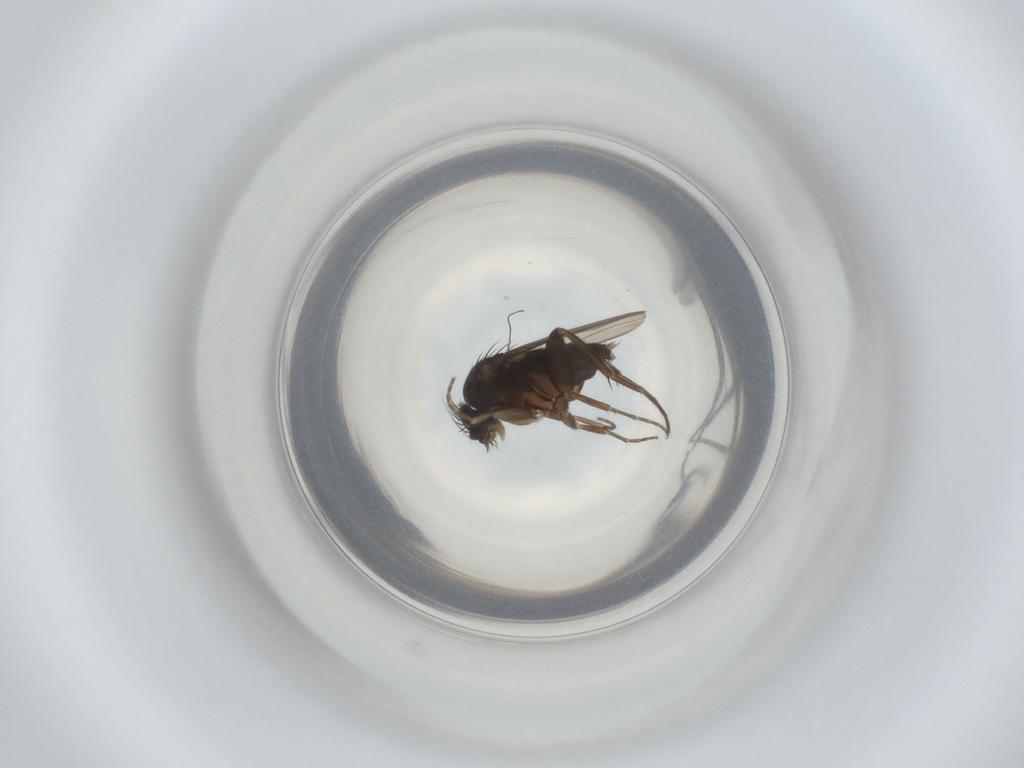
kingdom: Animalia
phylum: Arthropoda
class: Insecta
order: Diptera
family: Phoridae
